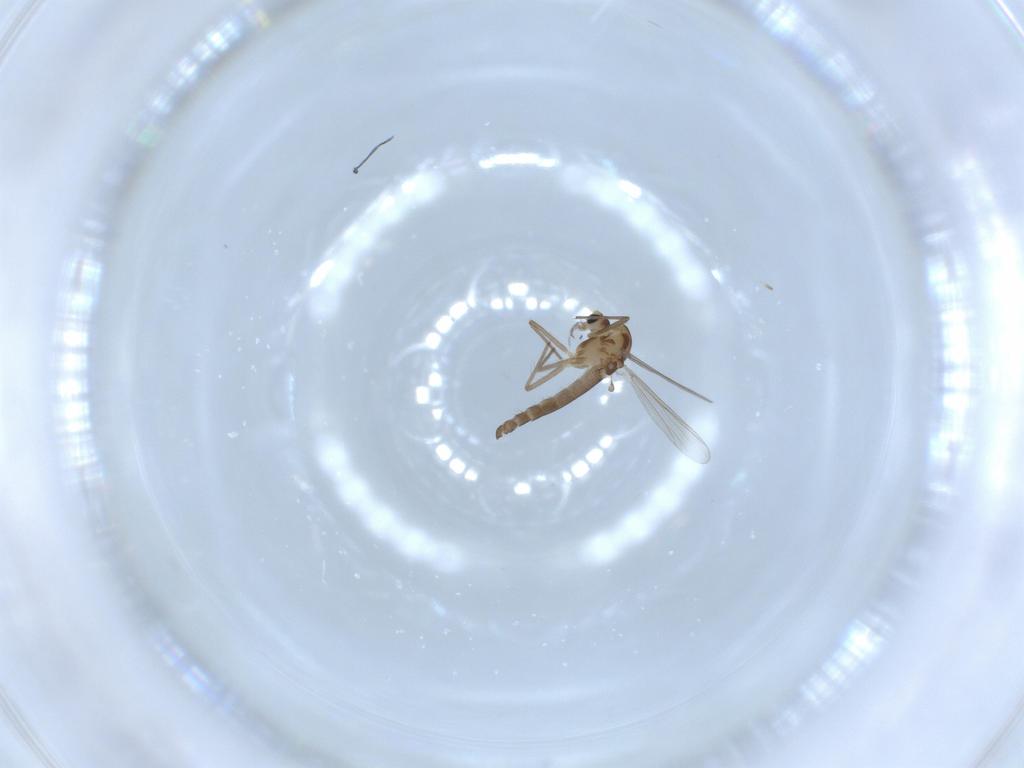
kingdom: Animalia
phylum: Arthropoda
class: Insecta
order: Diptera
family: Chironomidae
